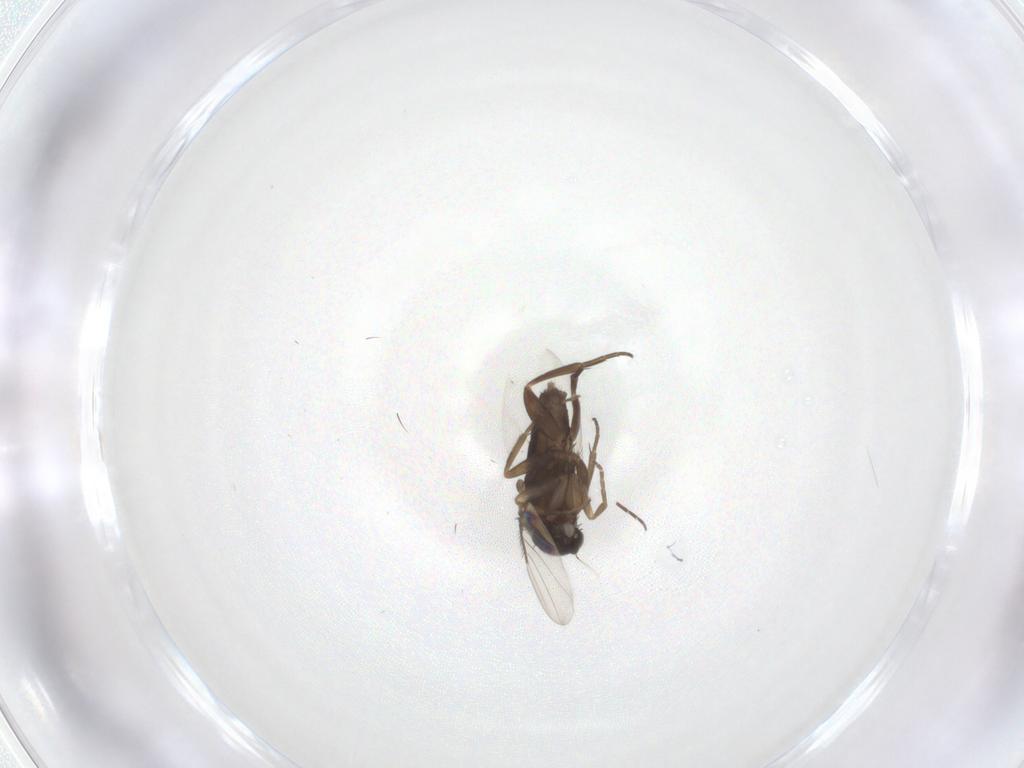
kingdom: Animalia
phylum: Arthropoda
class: Insecta
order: Diptera
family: Phoridae
